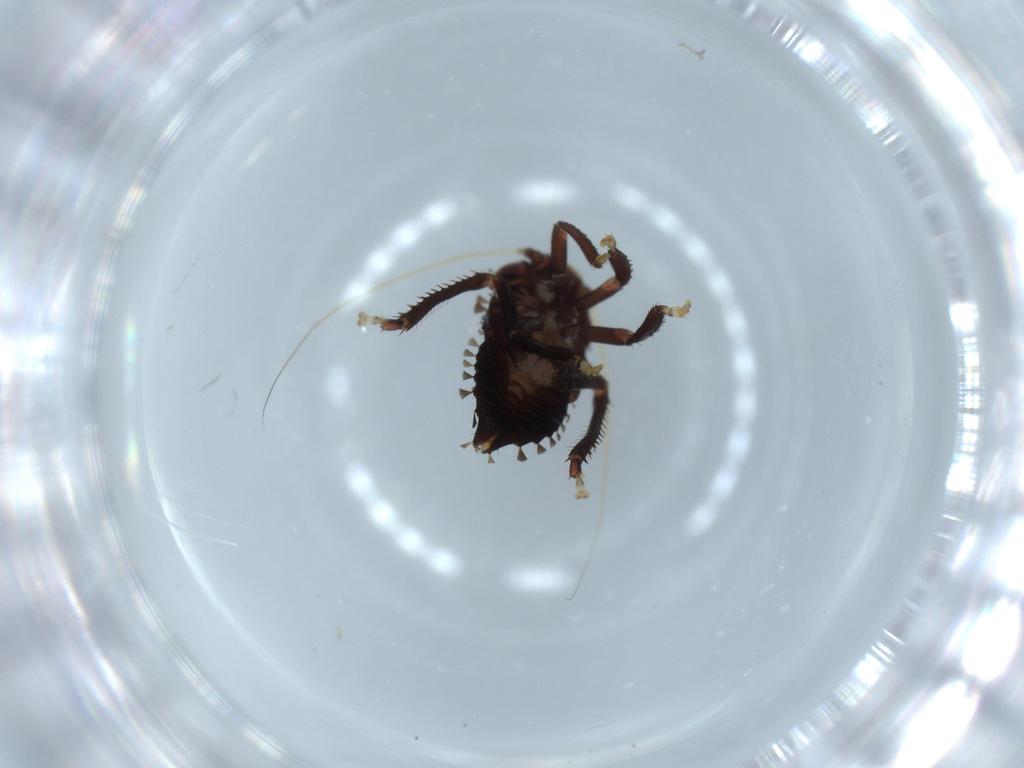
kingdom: Animalia
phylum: Arthropoda
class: Insecta
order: Hemiptera
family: Cicadellidae
